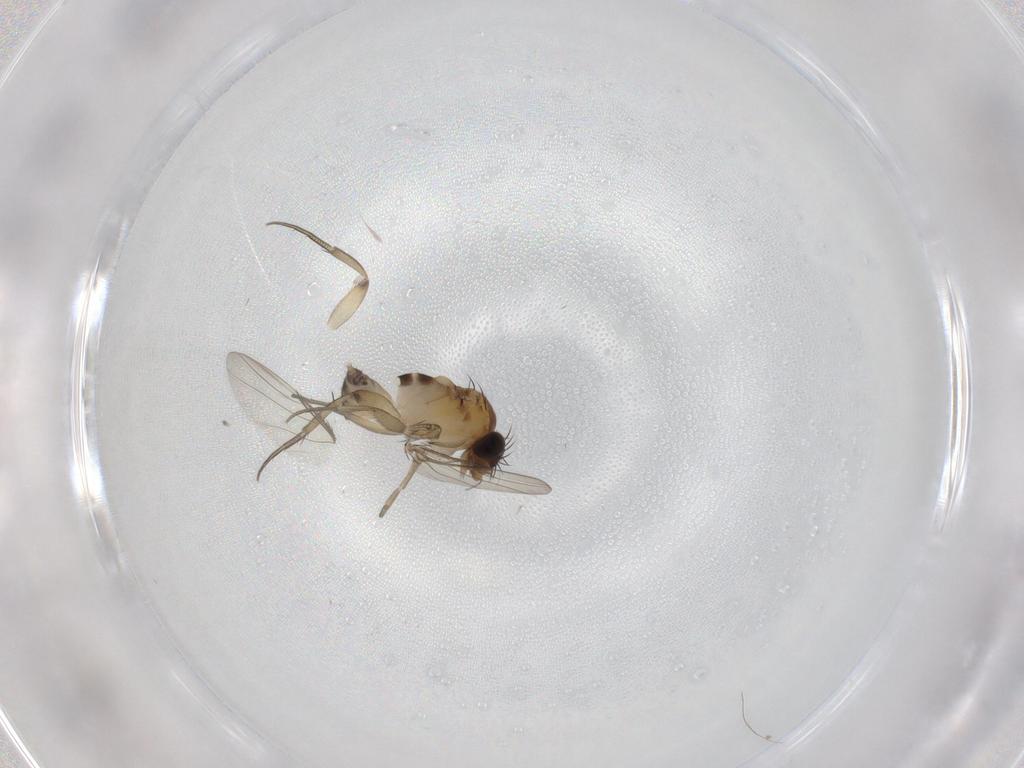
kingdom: Animalia
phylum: Arthropoda
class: Insecta
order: Diptera
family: Phoridae
